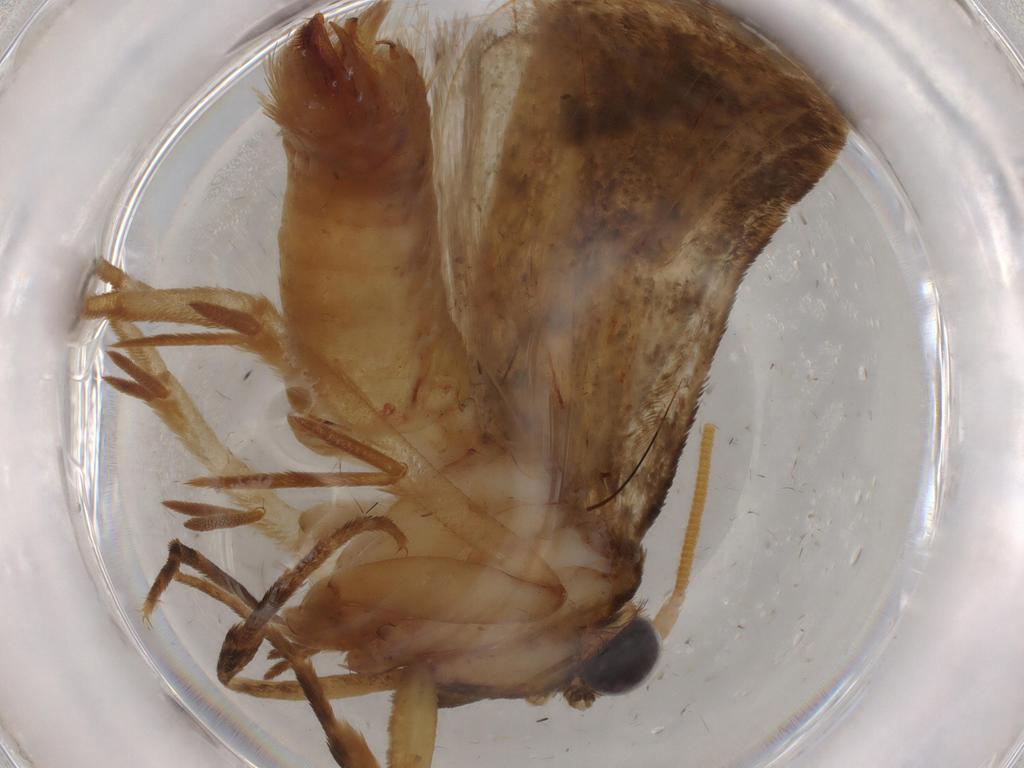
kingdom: Animalia
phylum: Arthropoda
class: Insecta
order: Lepidoptera
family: Tineidae
